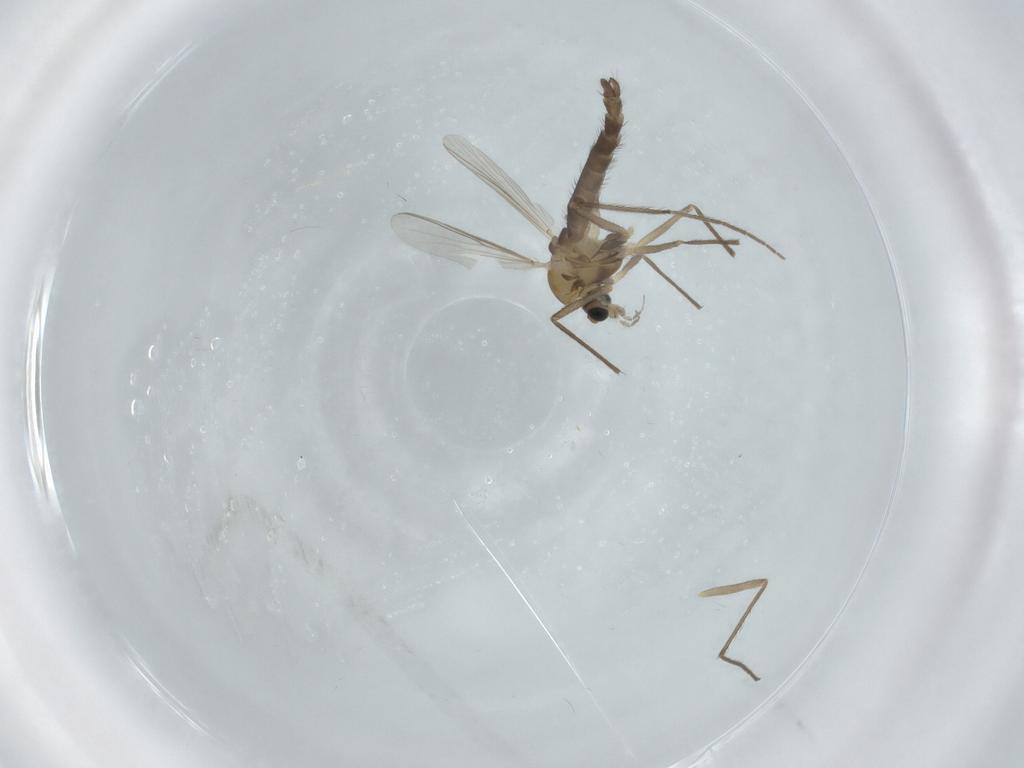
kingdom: Animalia
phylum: Arthropoda
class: Insecta
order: Diptera
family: Chironomidae
